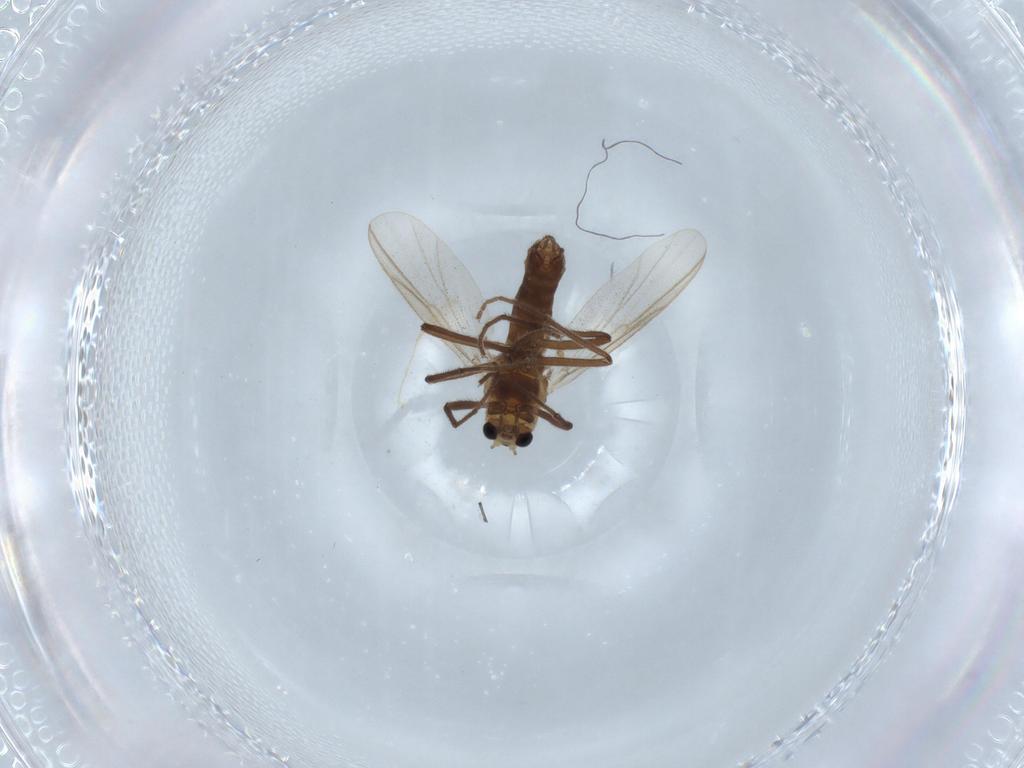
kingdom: Animalia
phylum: Arthropoda
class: Insecta
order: Diptera
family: Chironomidae
